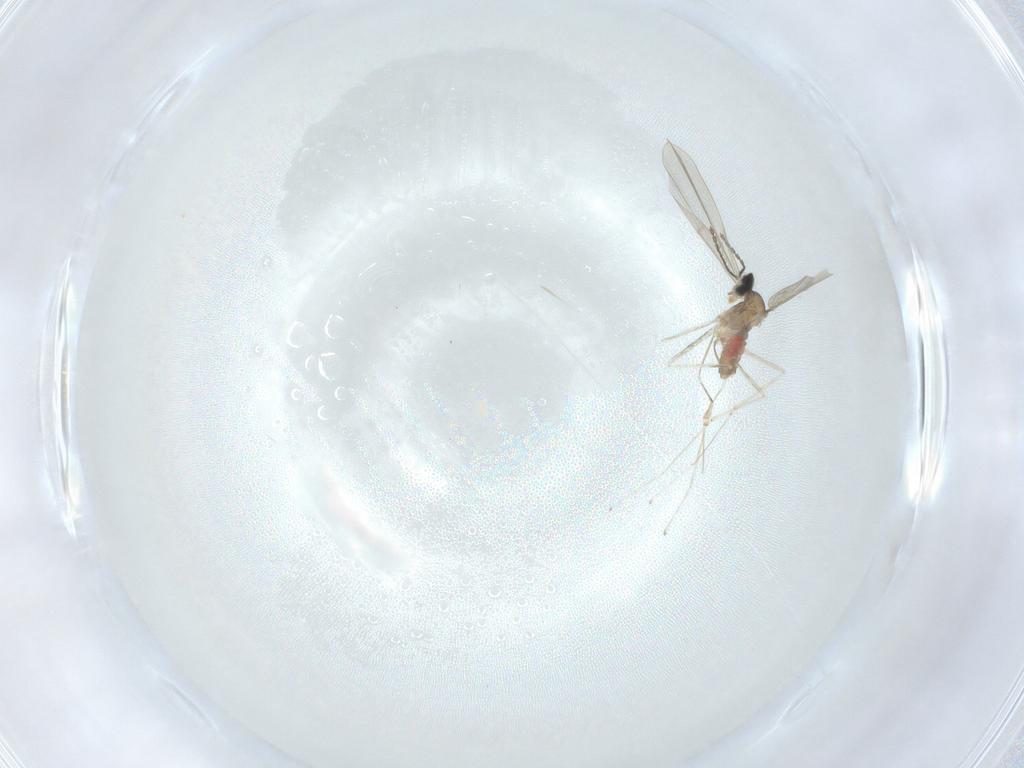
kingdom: Animalia
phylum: Arthropoda
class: Insecta
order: Diptera
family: Cecidomyiidae
